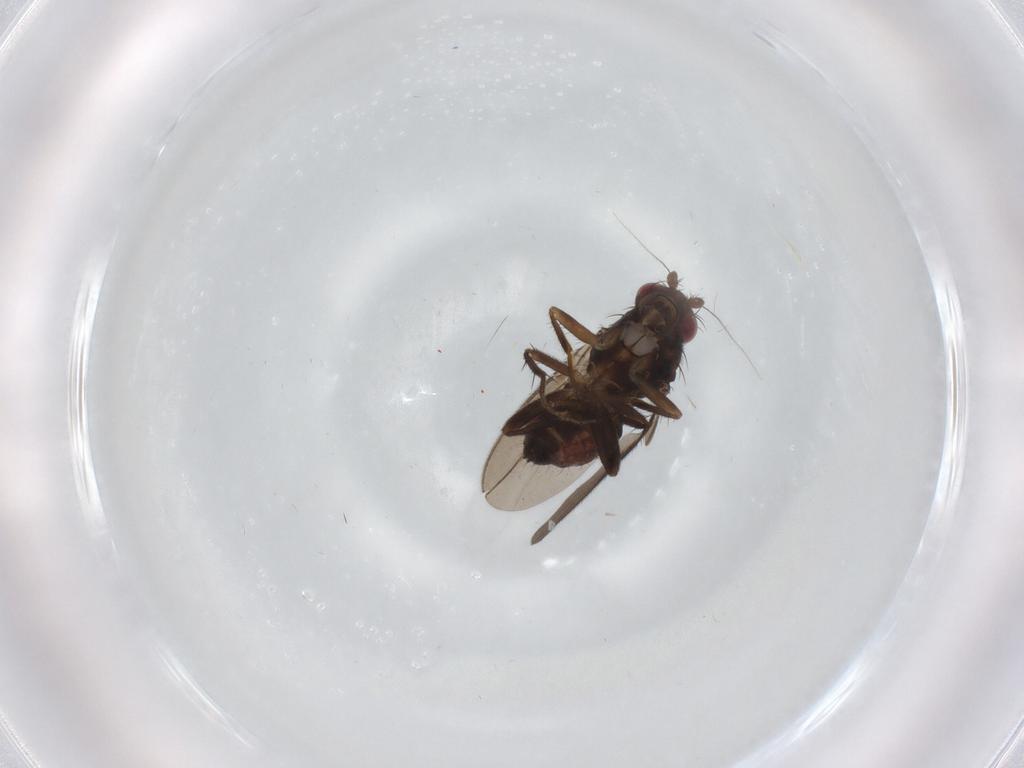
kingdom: Animalia
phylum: Arthropoda
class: Insecta
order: Diptera
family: Sphaeroceridae
